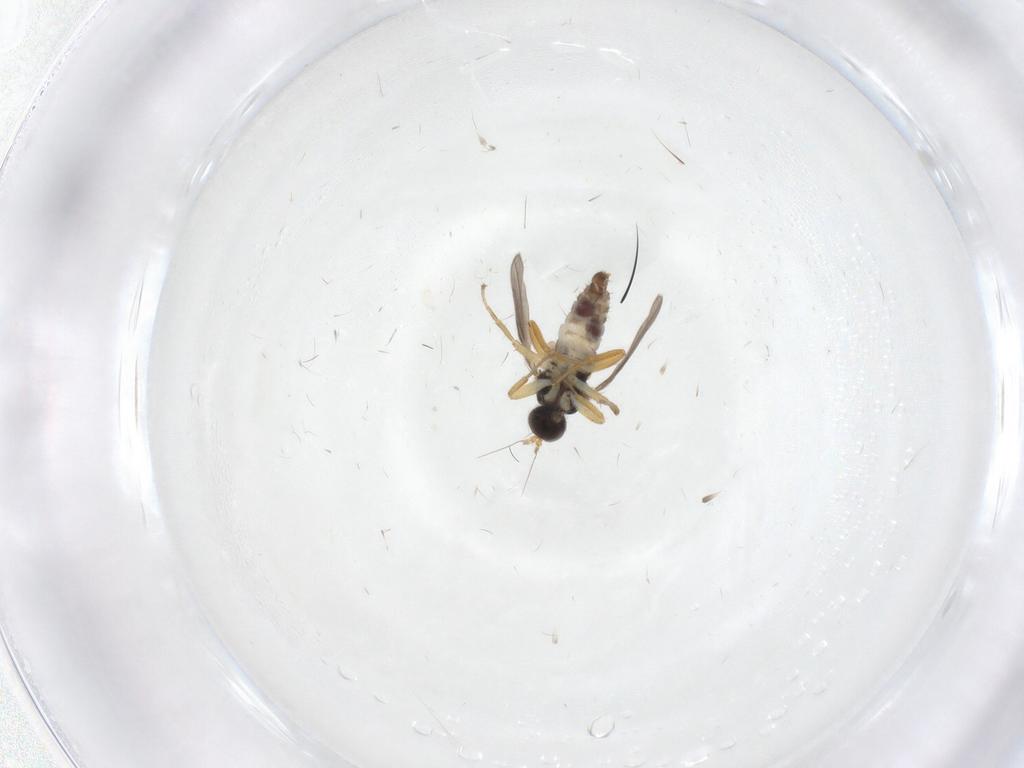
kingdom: Animalia
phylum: Arthropoda
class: Insecta
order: Diptera
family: Hybotidae
